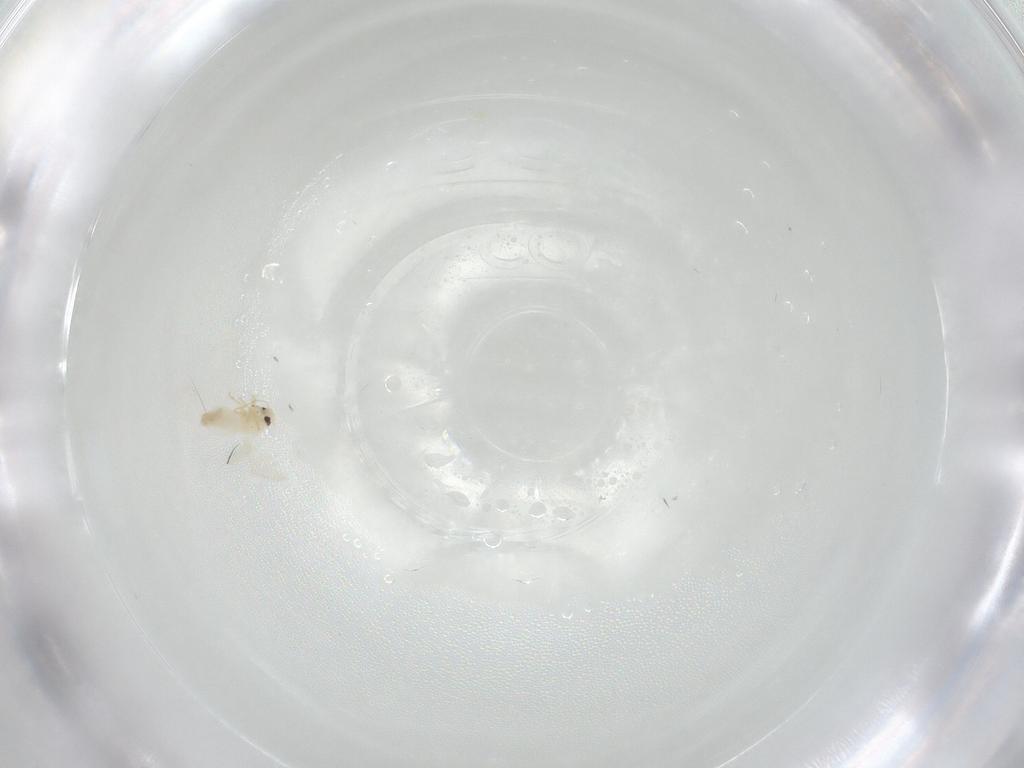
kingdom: Animalia
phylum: Arthropoda
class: Insecta
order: Hemiptera
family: Aleyrodidae
